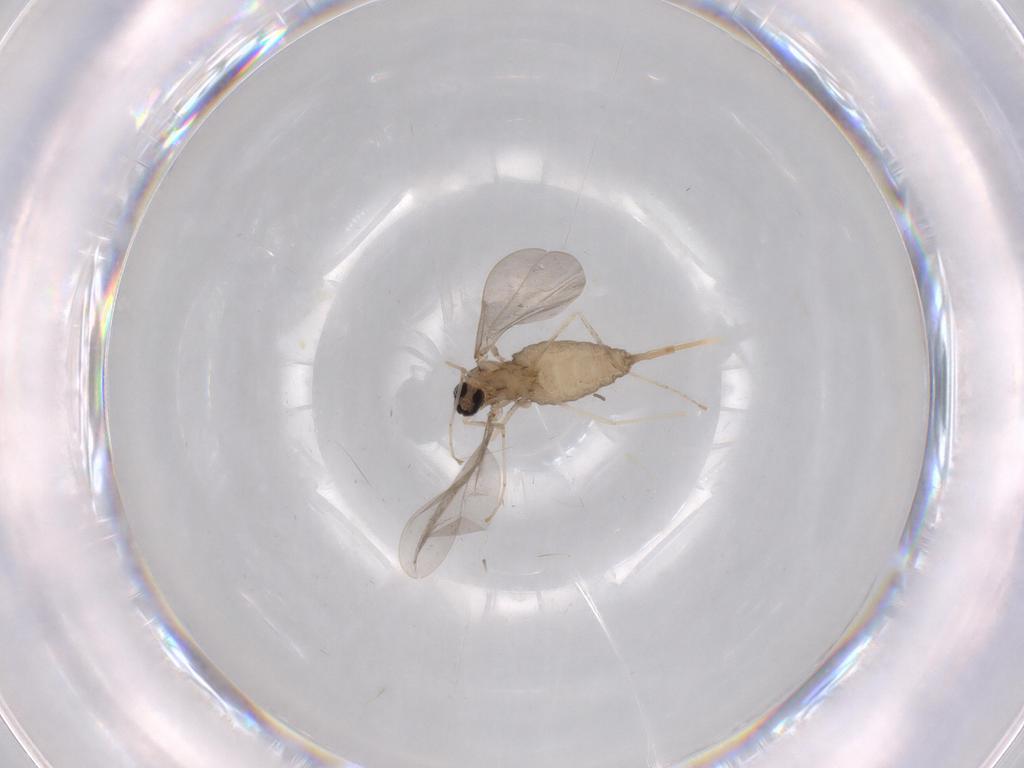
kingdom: Animalia
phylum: Arthropoda
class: Insecta
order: Diptera
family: Cecidomyiidae
